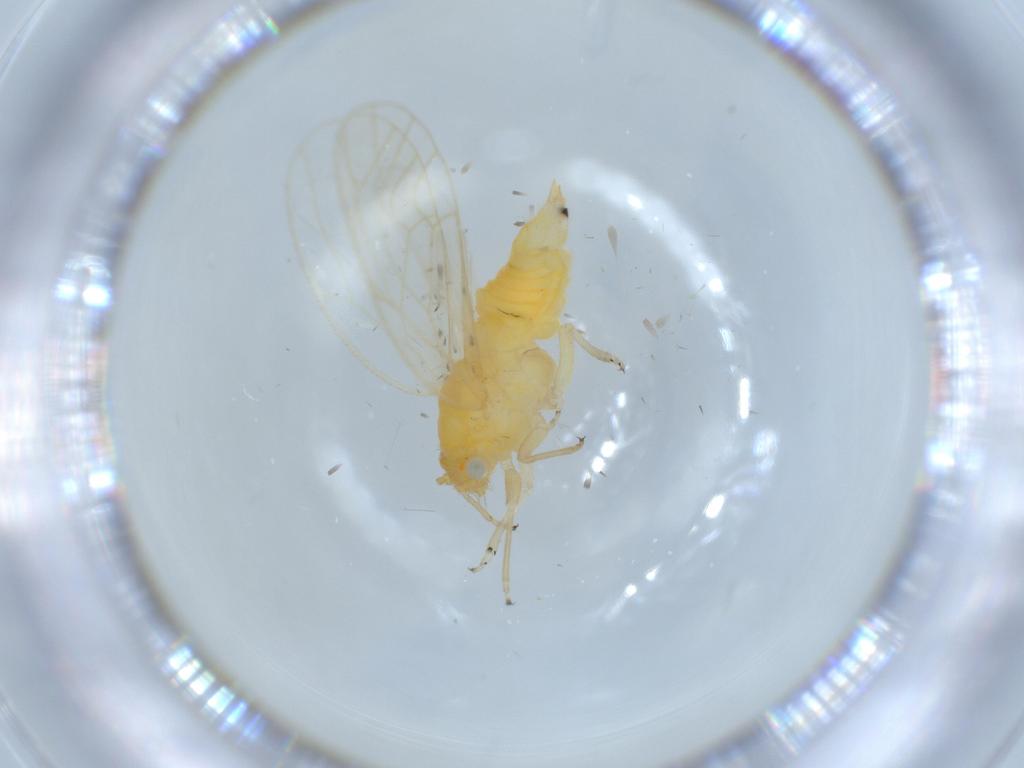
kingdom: Animalia
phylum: Arthropoda
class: Insecta
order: Hemiptera
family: Psyllidae
